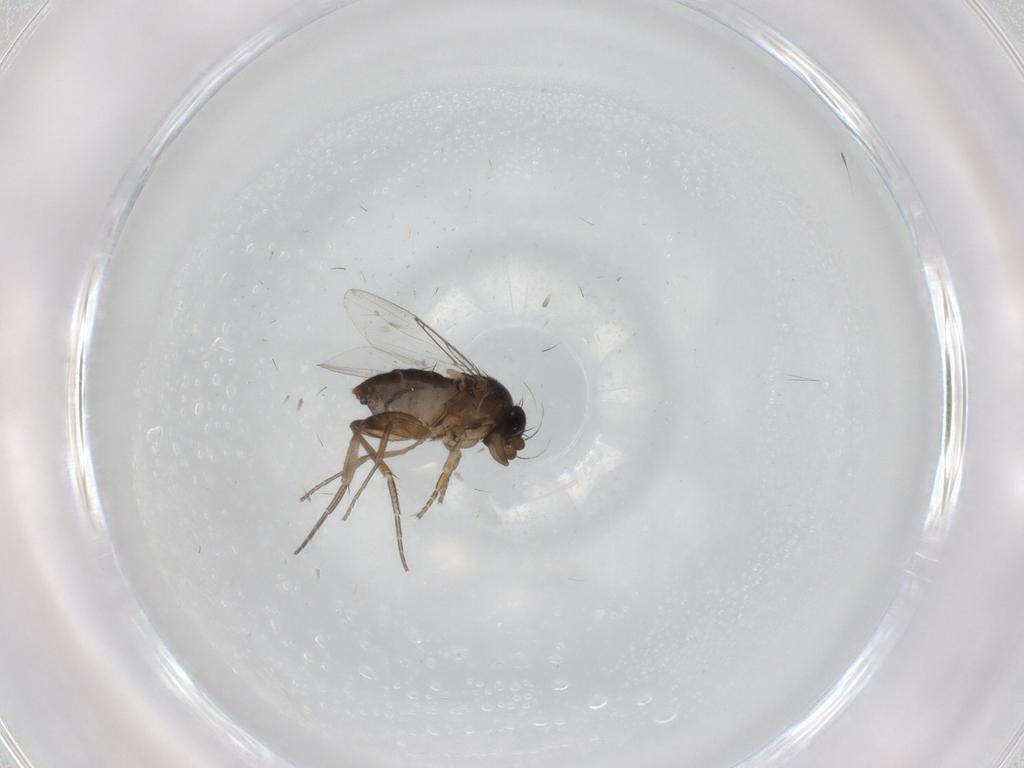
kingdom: Animalia
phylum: Arthropoda
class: Insecta
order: Diptera
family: Phoridae
